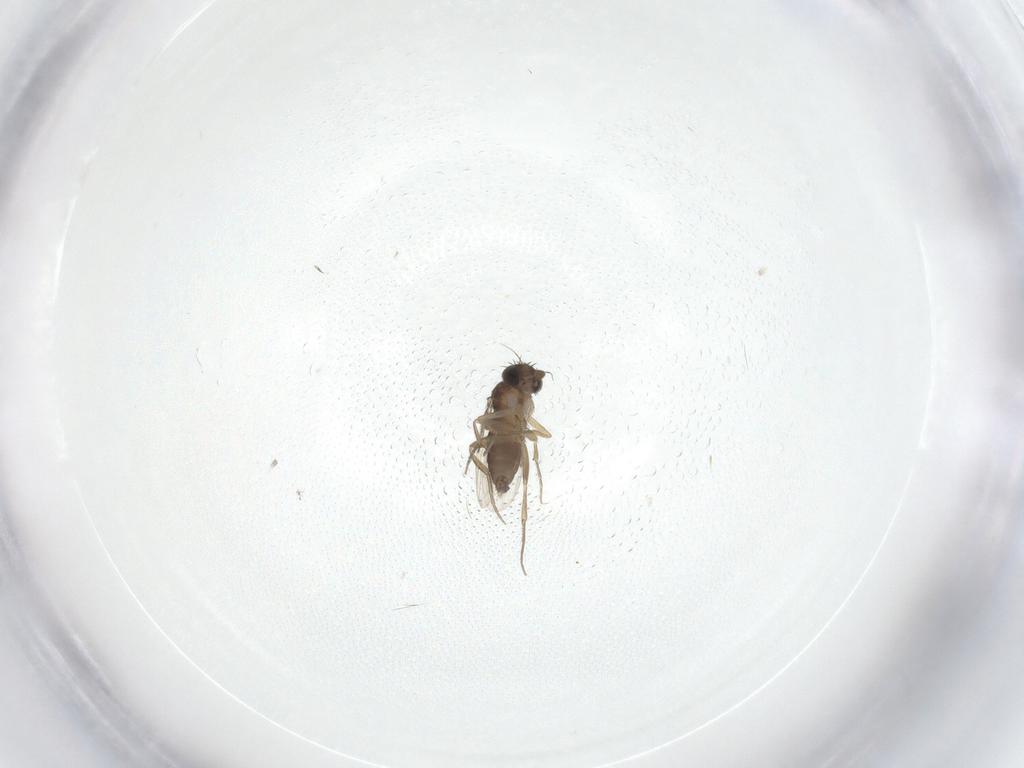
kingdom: Animalia
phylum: Arthropoda
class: Insecta
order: Diptera
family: Phoridae
